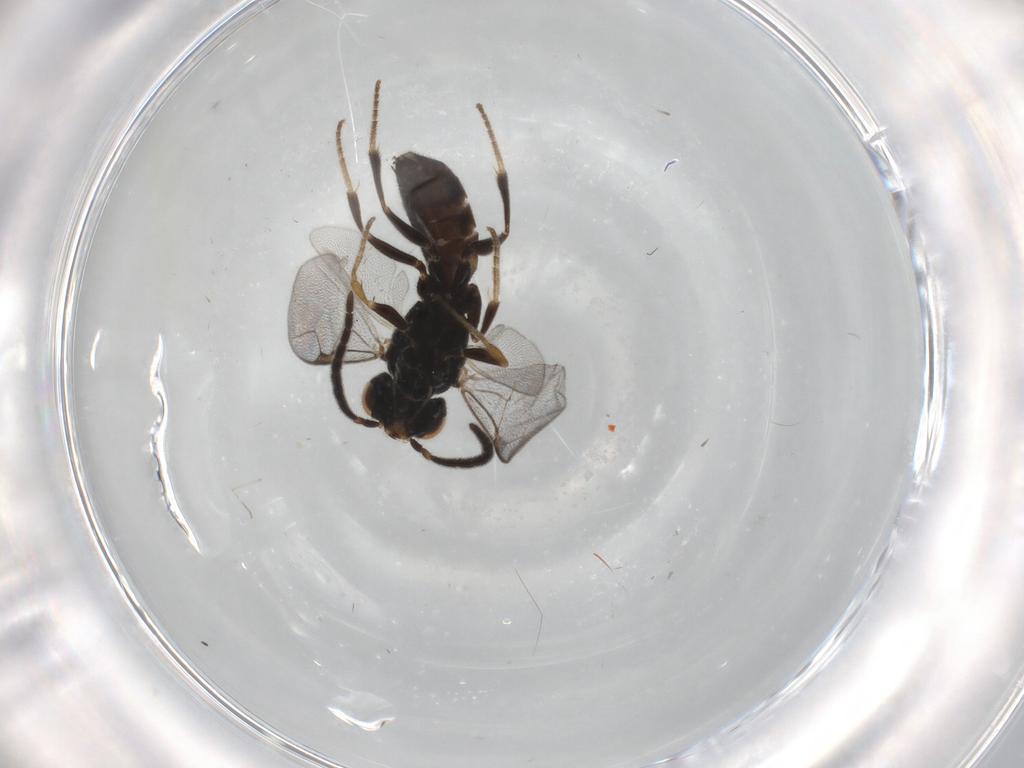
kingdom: Animalia
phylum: Arthropoda
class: Insecta
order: Hymenoptera
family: Dryinidae
